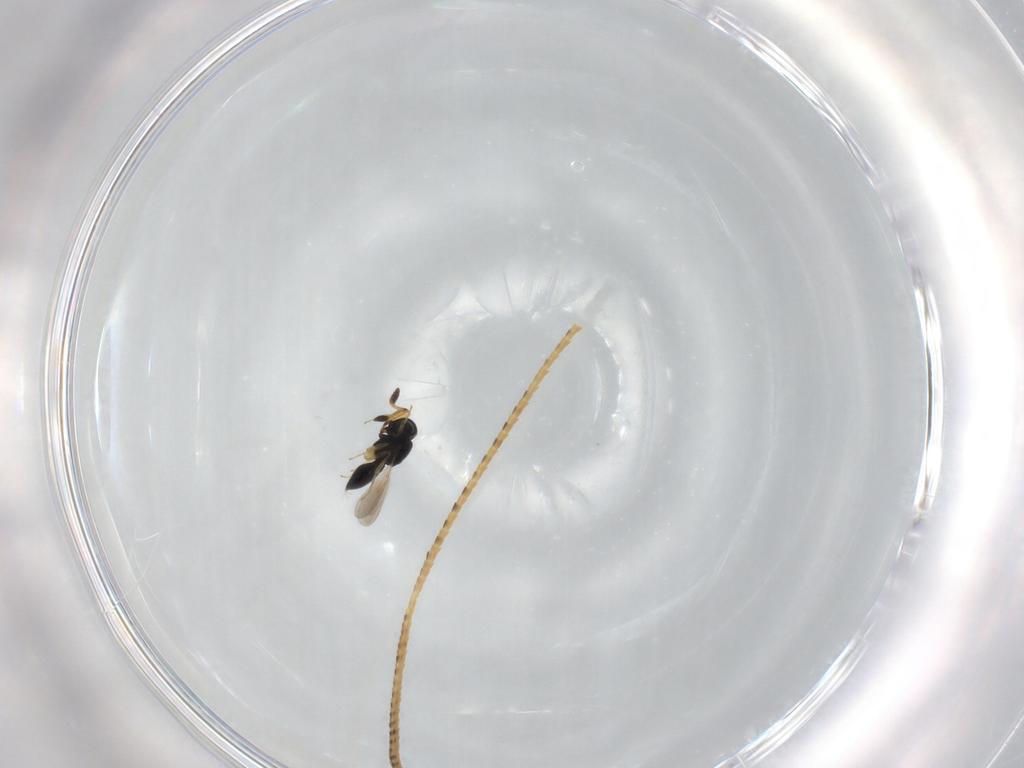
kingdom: Animalia
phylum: Arthropoda
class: Insecta
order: Hymenoptera
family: Scelionidae
